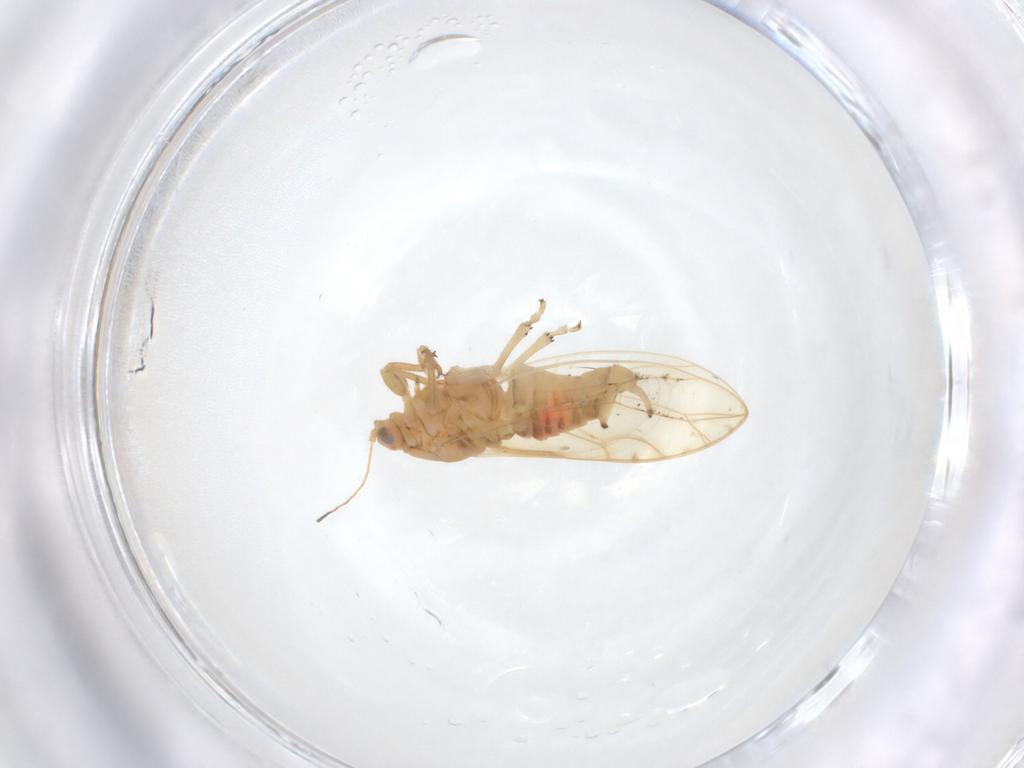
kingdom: Animalia
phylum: Arthropoda
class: Insecta
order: Hemiptera
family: Triozidae
